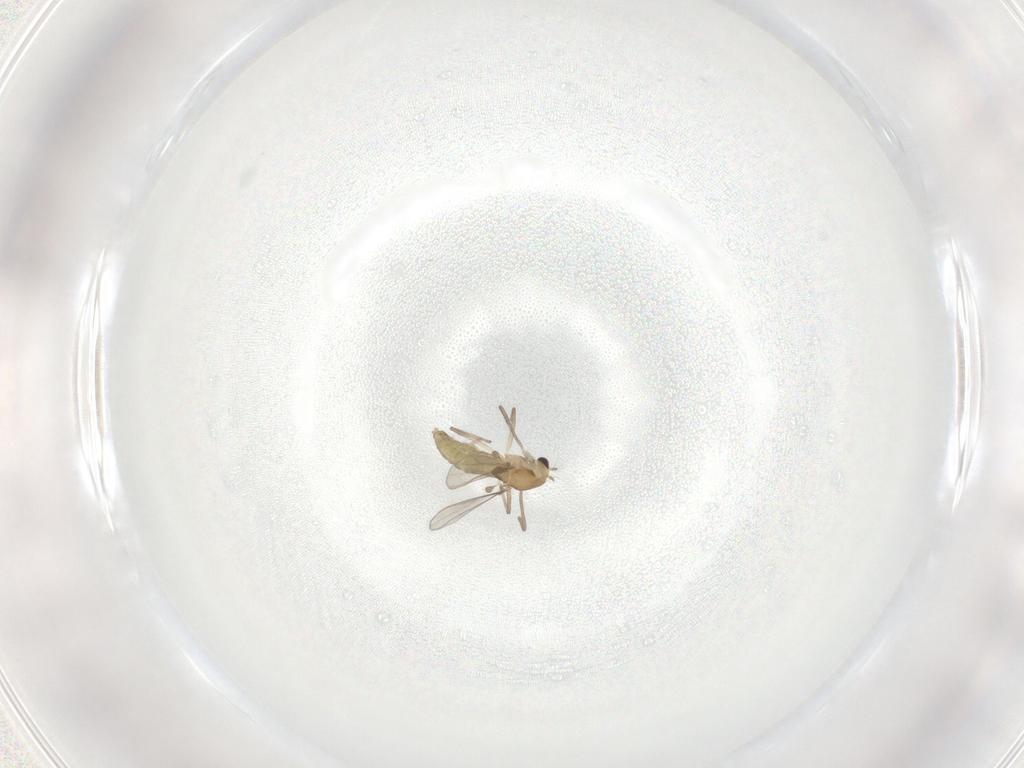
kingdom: Animalia
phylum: Arthropoda
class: Insecta
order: Diptera
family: Chironomidae
